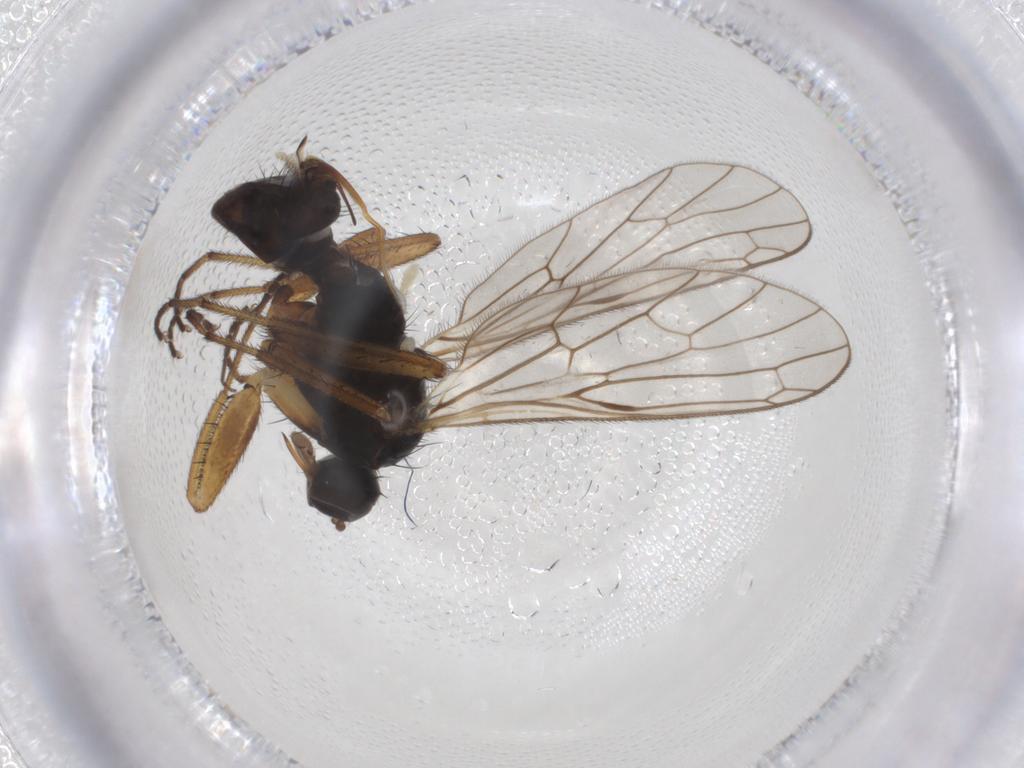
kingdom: Animalia
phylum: Arthropoda
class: Insecta
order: Diptera
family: Ceratopogonidae
